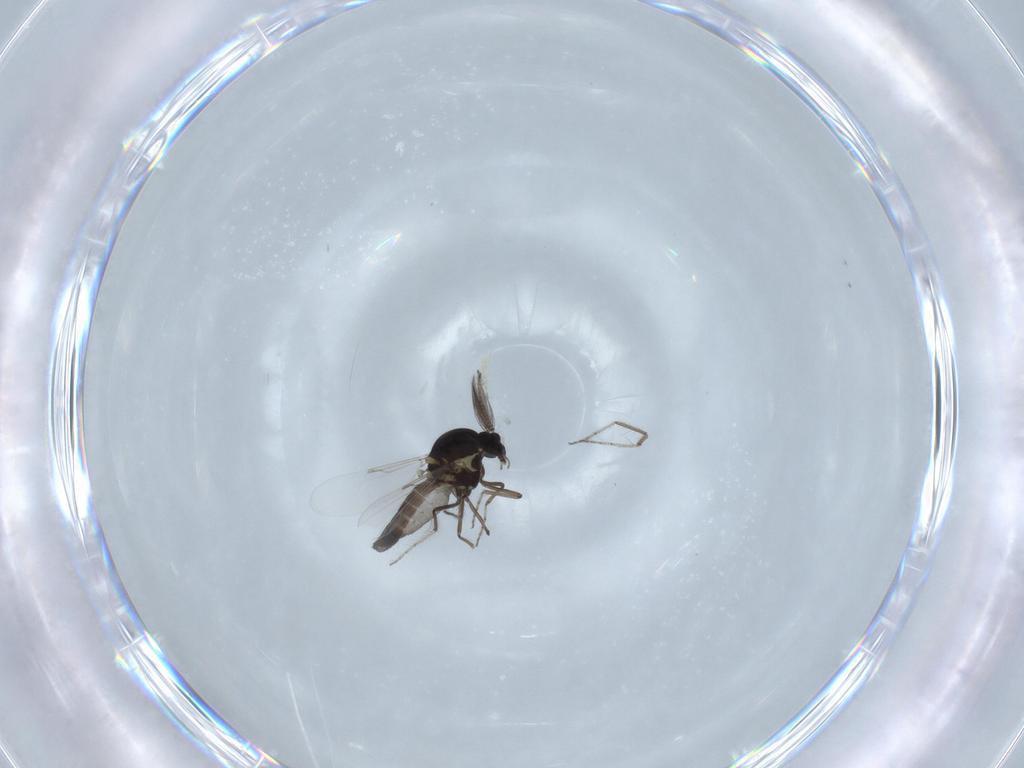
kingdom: Animalia
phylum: Arthropoda
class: Insecta
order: Diptera
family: Ceratopogonidae
